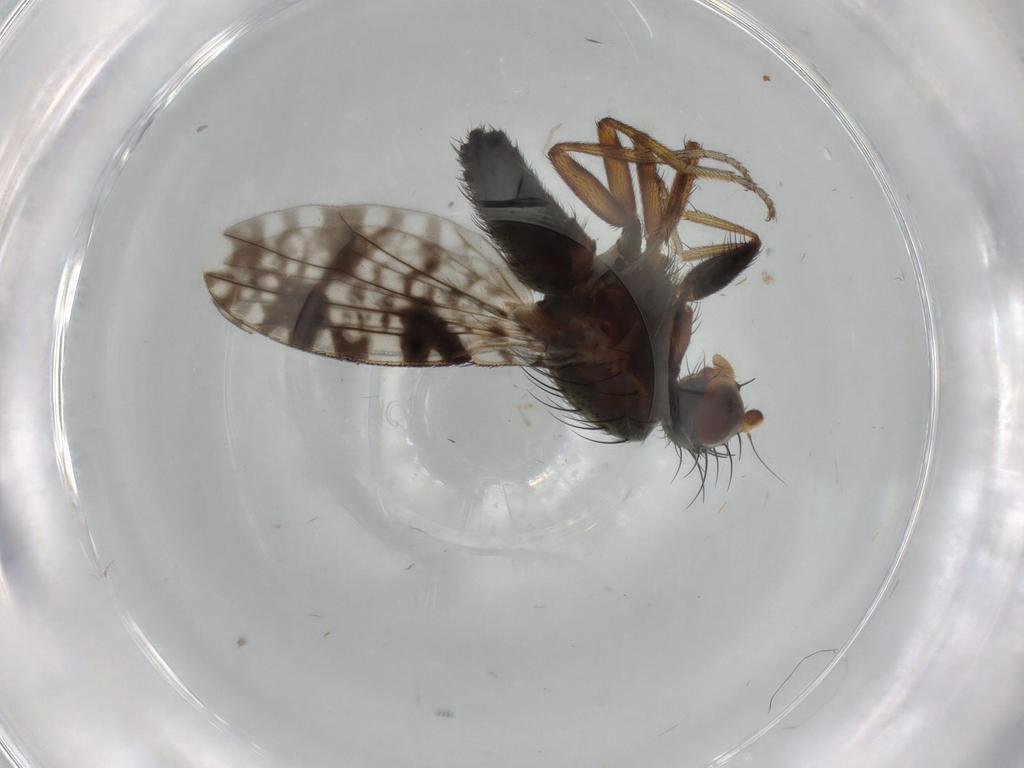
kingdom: Animalia
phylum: Arthropoda
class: Insecta
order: Diptera
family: Tephritidae
